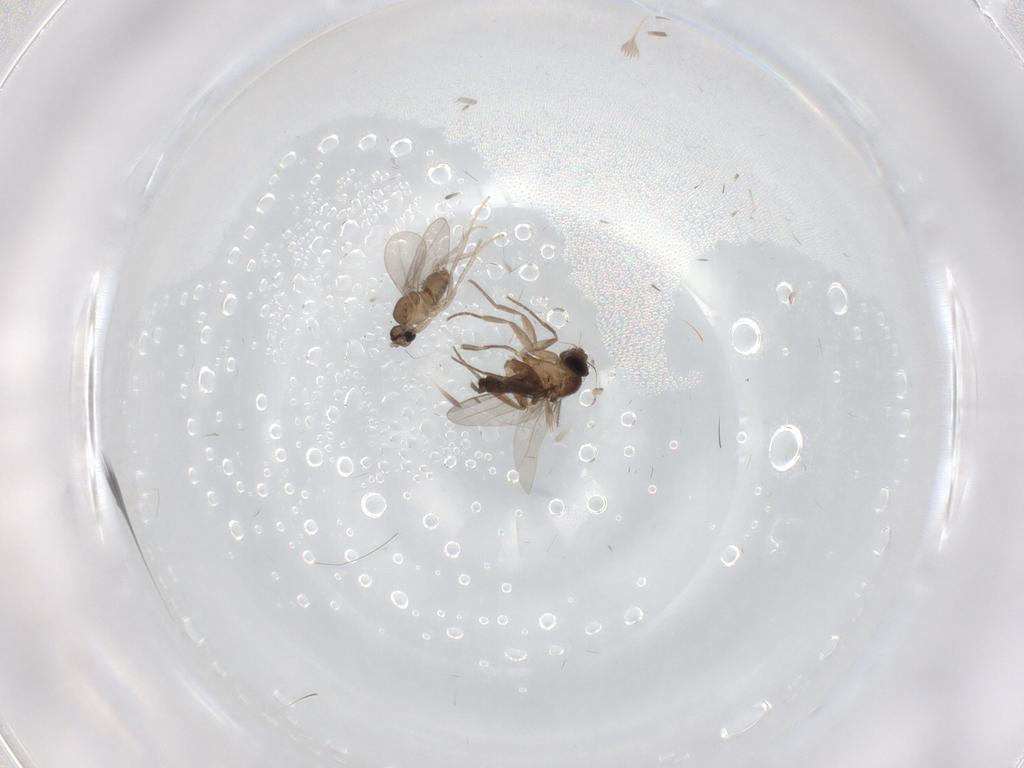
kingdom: Animalia
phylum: Arthropoda
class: Insecta
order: Diptera
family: Cecidomyiidae
